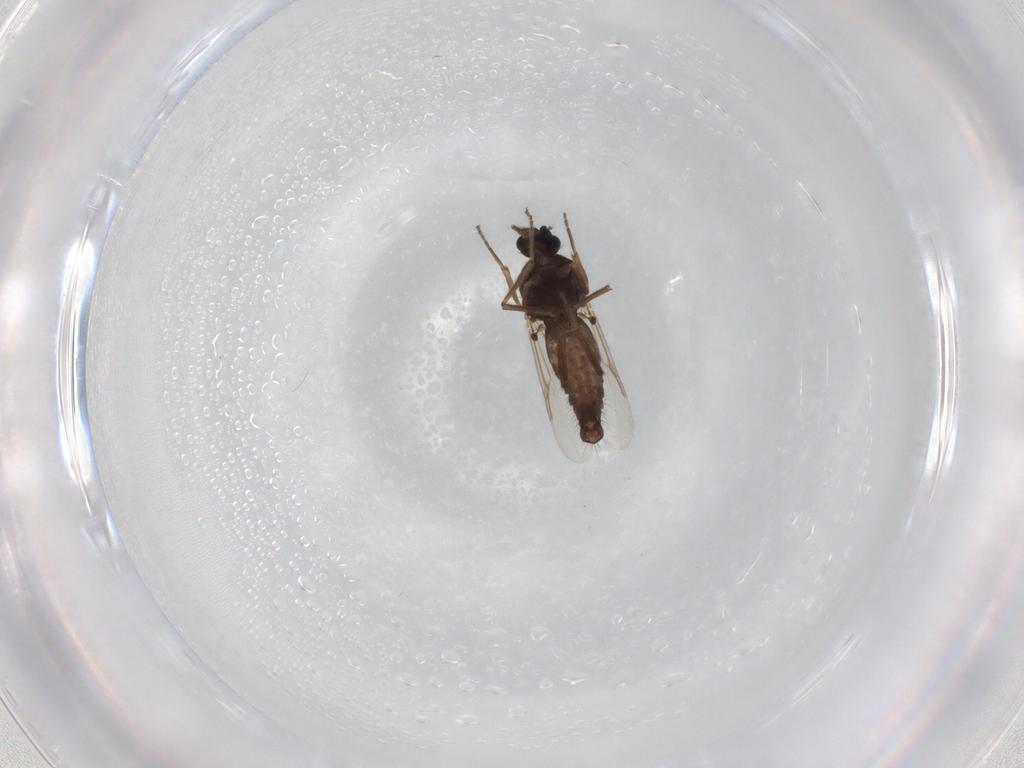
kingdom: Animalia
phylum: Arthropoda
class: Insecta
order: Diptera
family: Ceratopogonidae
